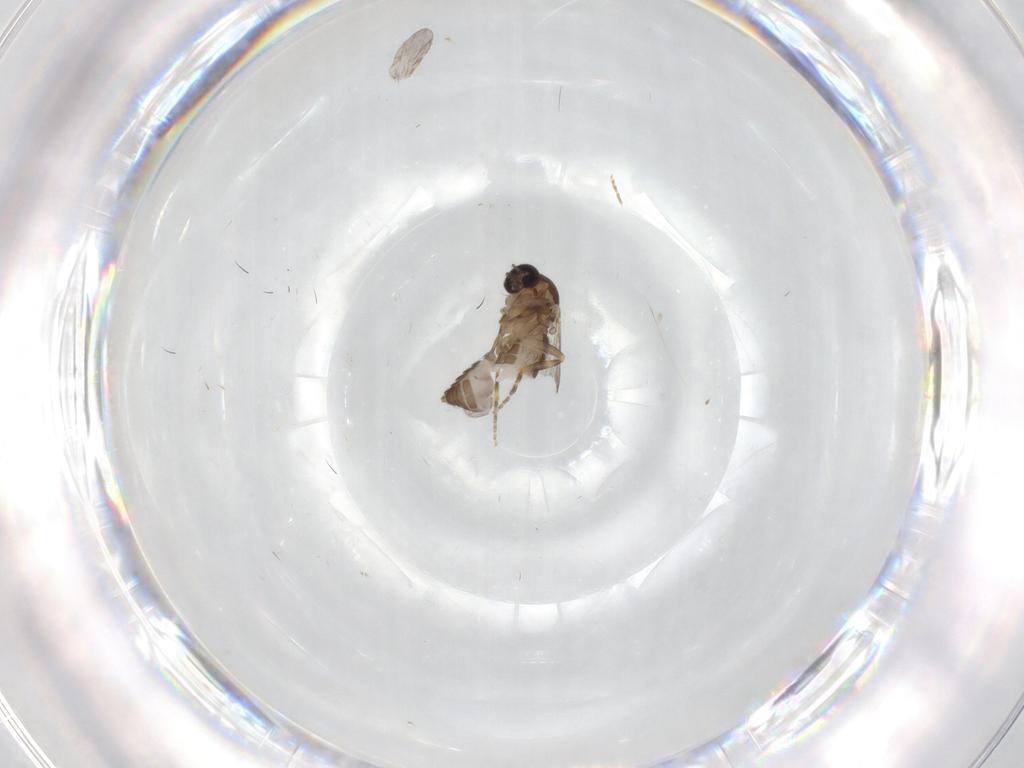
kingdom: Animalia
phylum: Arthropoda
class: Insecta
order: Diptera
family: Ceratopogonidae
